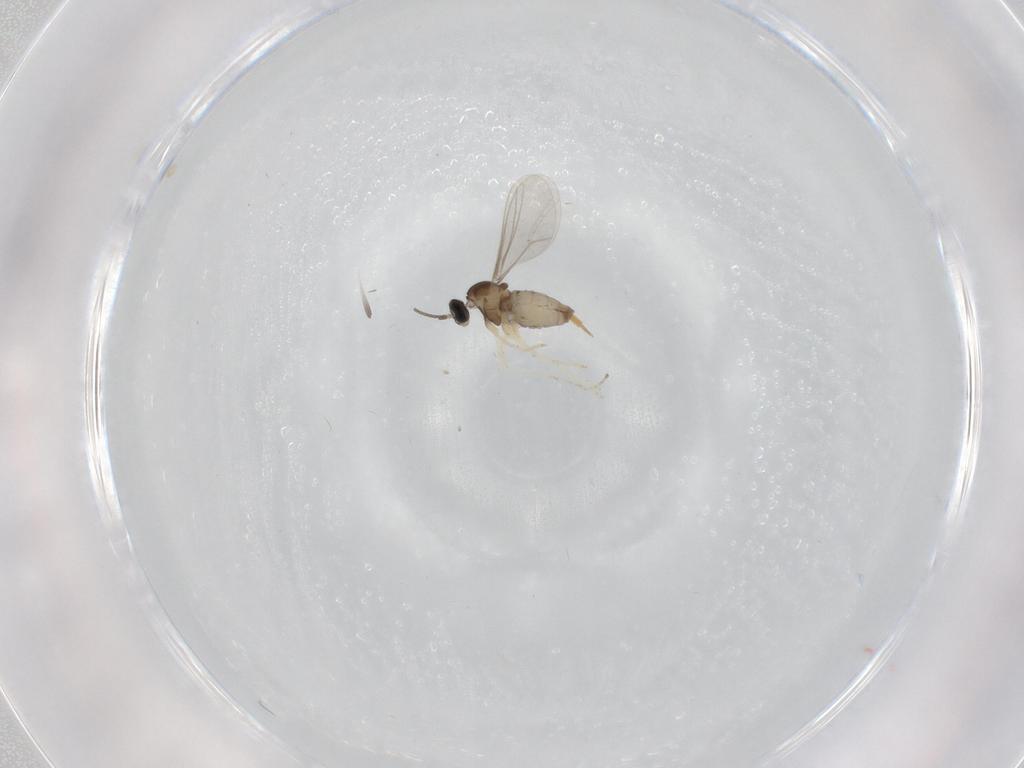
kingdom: Animalia
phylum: Arthropoda
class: Insecta
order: Diptera
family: Cecidomyiidae
